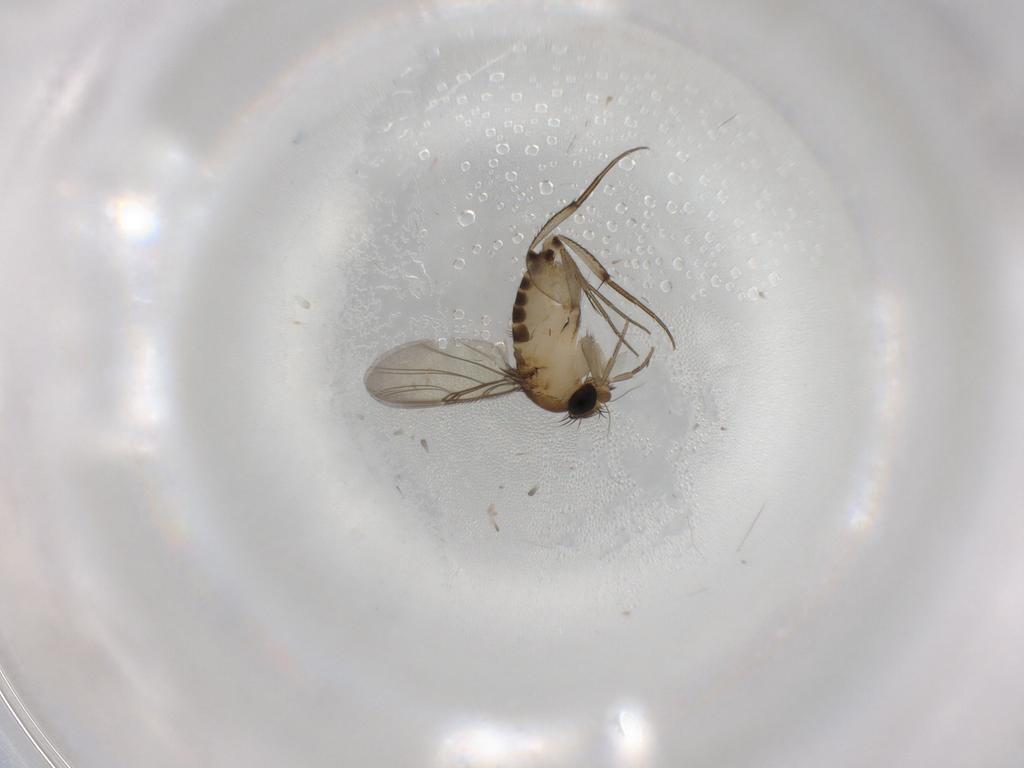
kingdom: Animalia
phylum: Arthropoda
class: Insecta
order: Diptera
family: Phoridae
